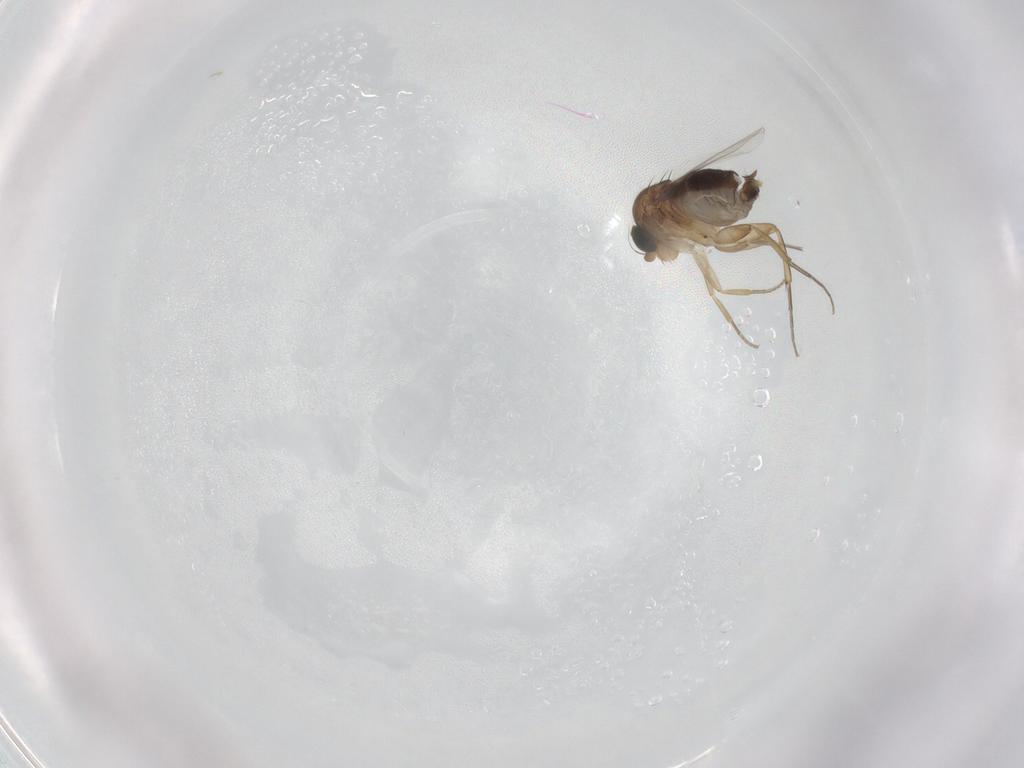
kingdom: Animalia
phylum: Arthropoda
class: Insecta
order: Diptera
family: Phoridae
